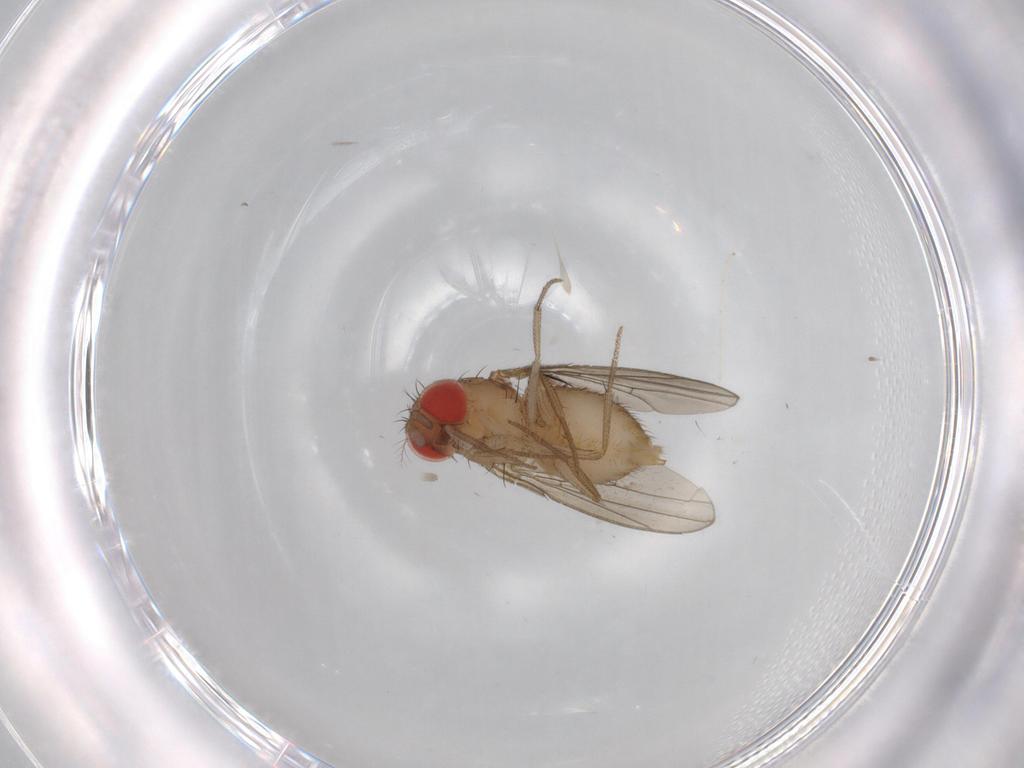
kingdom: Animalia
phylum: Arthropoda
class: Insecta
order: Diptera
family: Drosophilidae
